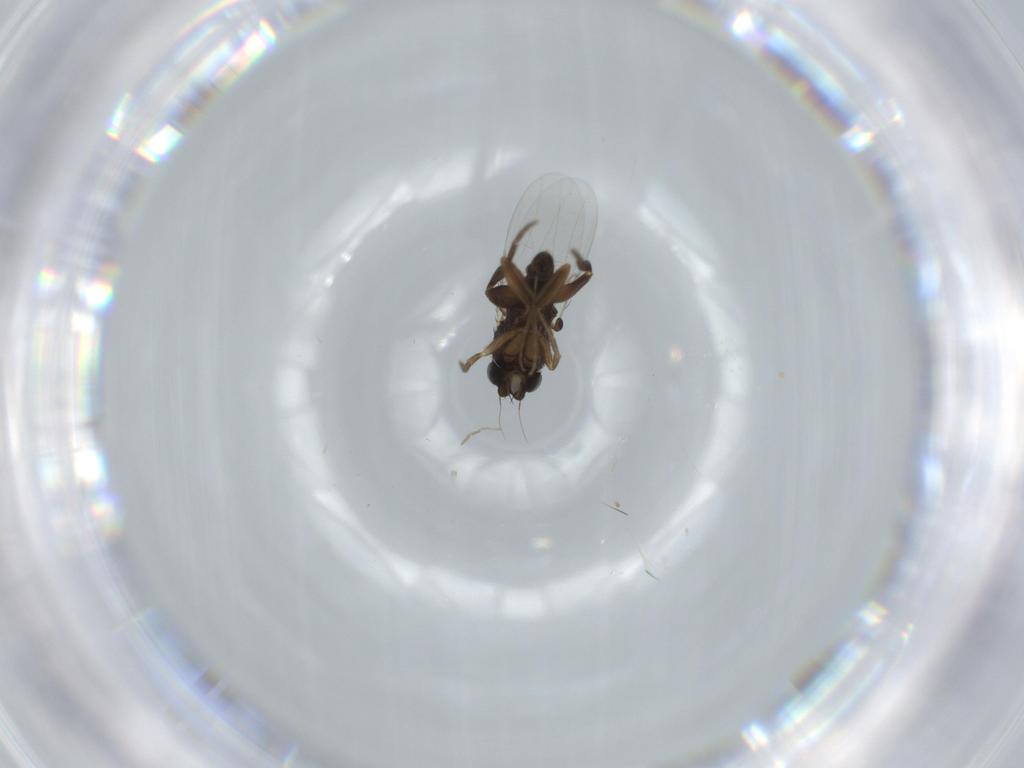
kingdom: Animalia
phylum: Arthropoda
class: Insecta
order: Diptera
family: Phoridae
